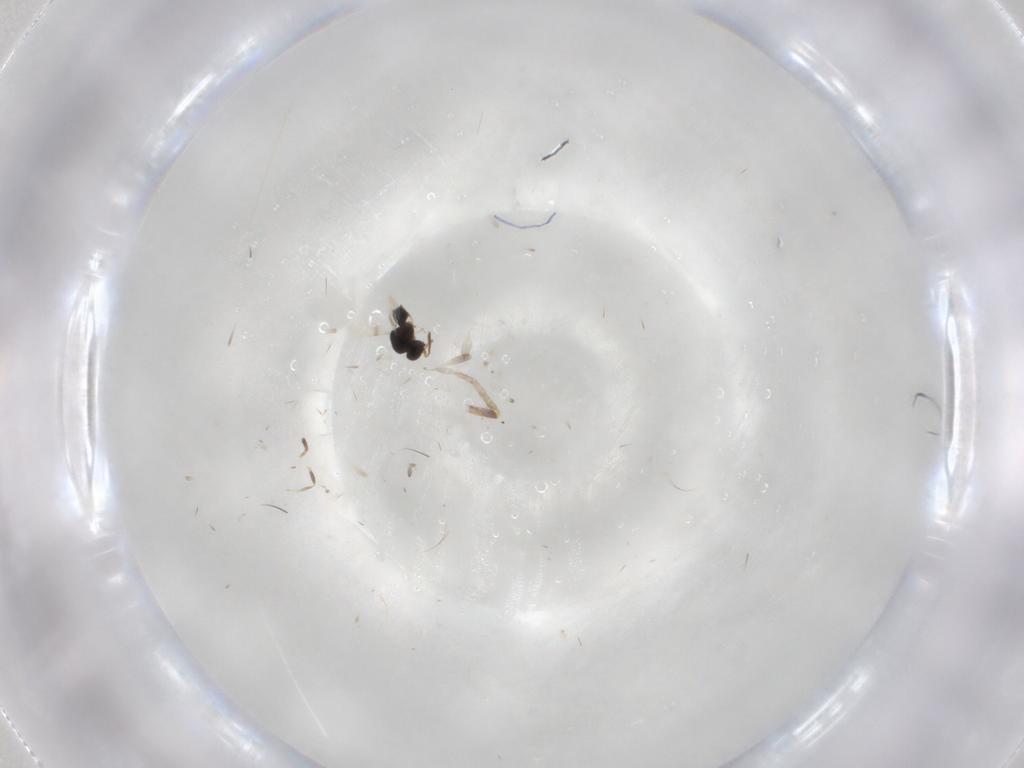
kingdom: Animalia
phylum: Arthropoda
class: Insecta
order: Hymenoptera
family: Ceraphronidae
